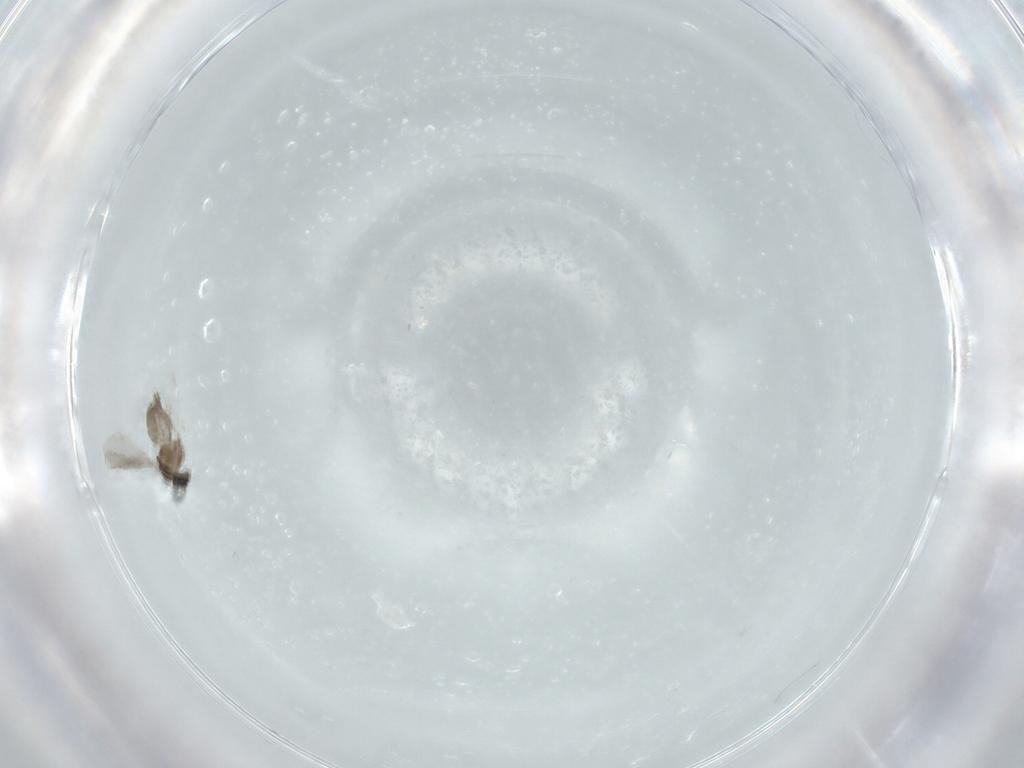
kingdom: Animalia
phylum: Arthropoda
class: Insecta
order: Diptera
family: Cecidomyiidae
